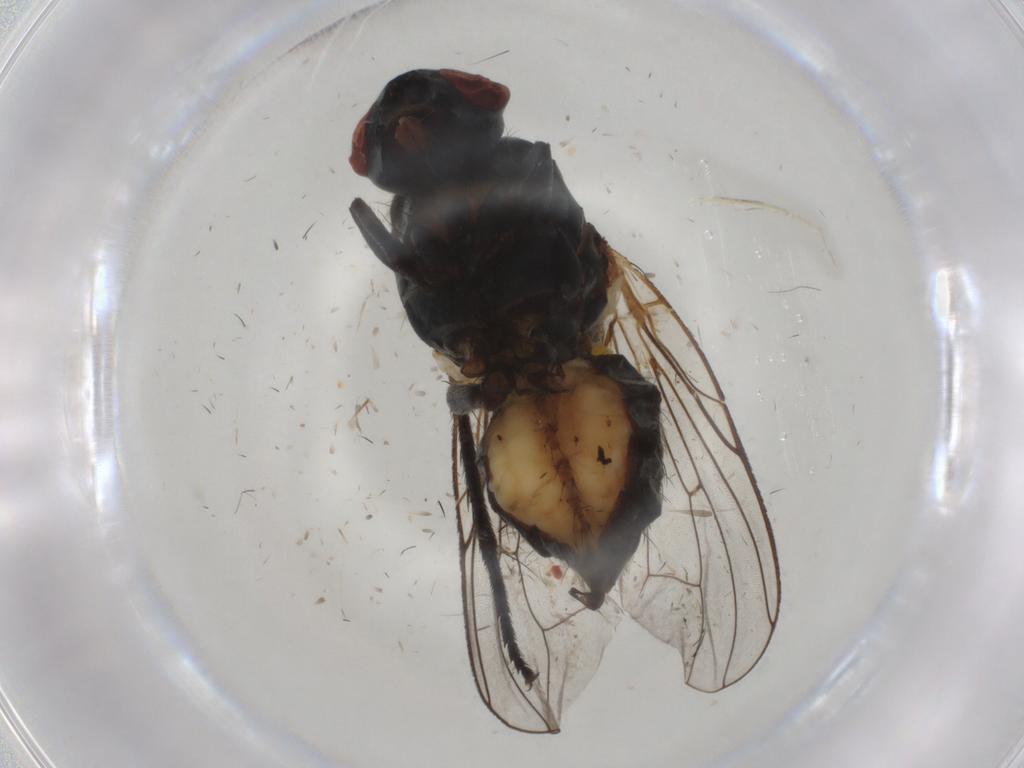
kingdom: Animalia
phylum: Arthropoda
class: Insecta
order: Diptera
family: Anthomyiidae
